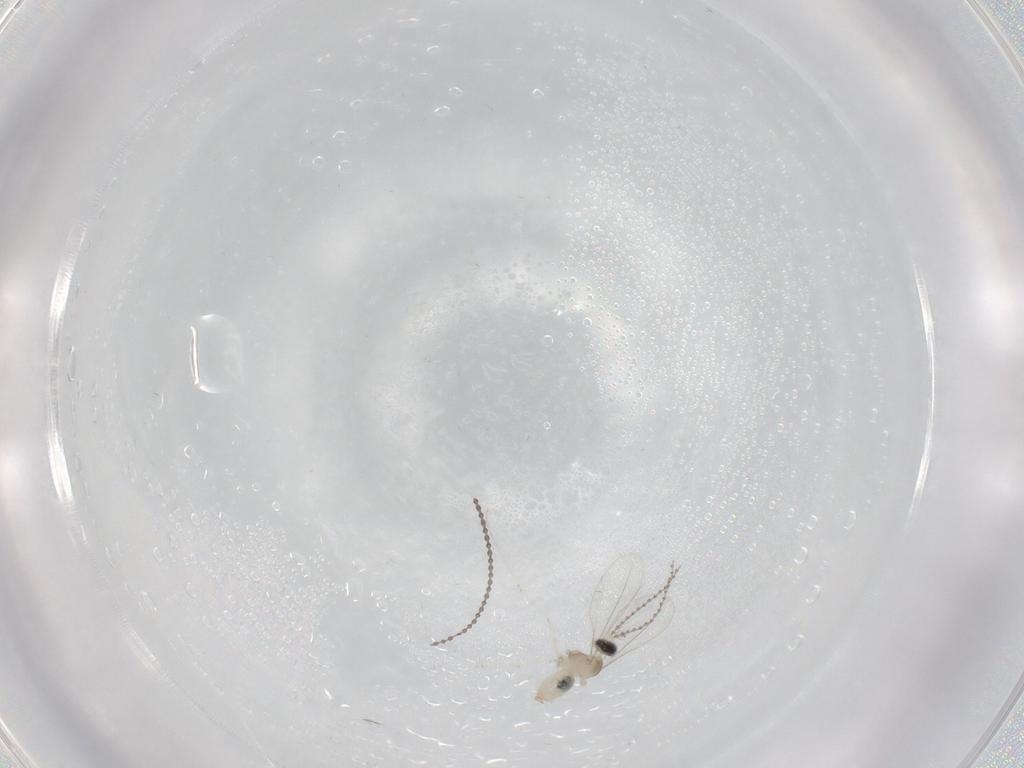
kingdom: Animalia
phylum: Arthropoda
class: Insecta
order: Diptera
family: Cecidomyiidae
